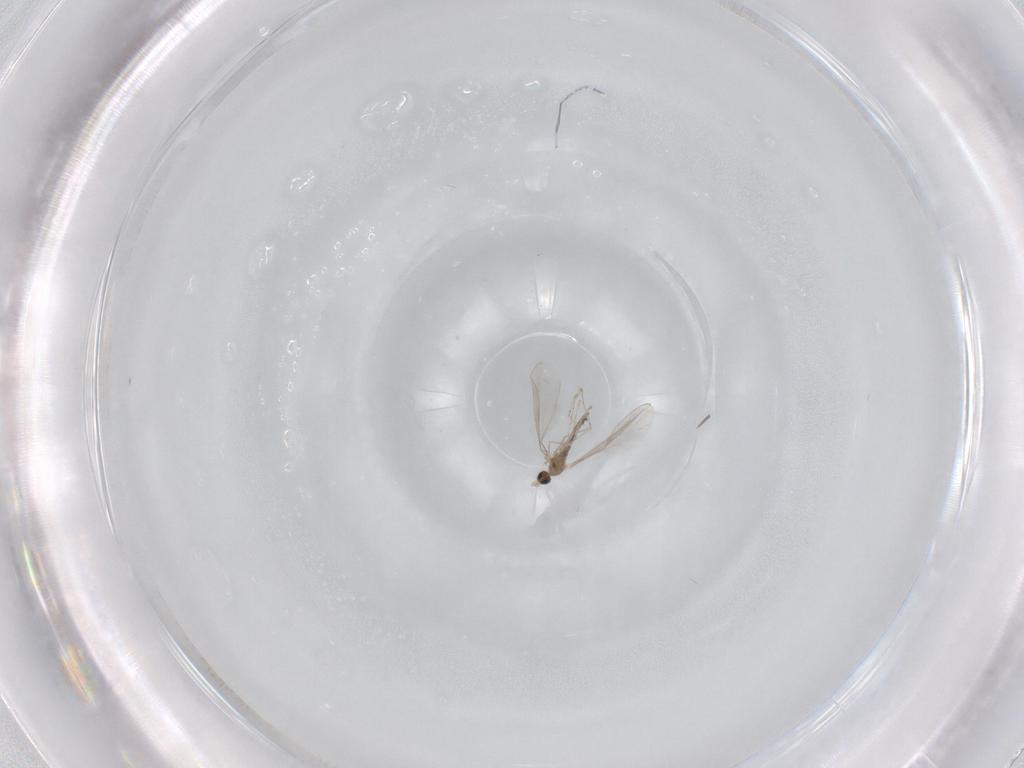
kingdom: Animalia
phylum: Arthropoda
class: Insecta
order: Diptera
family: Cecidomyiidae
